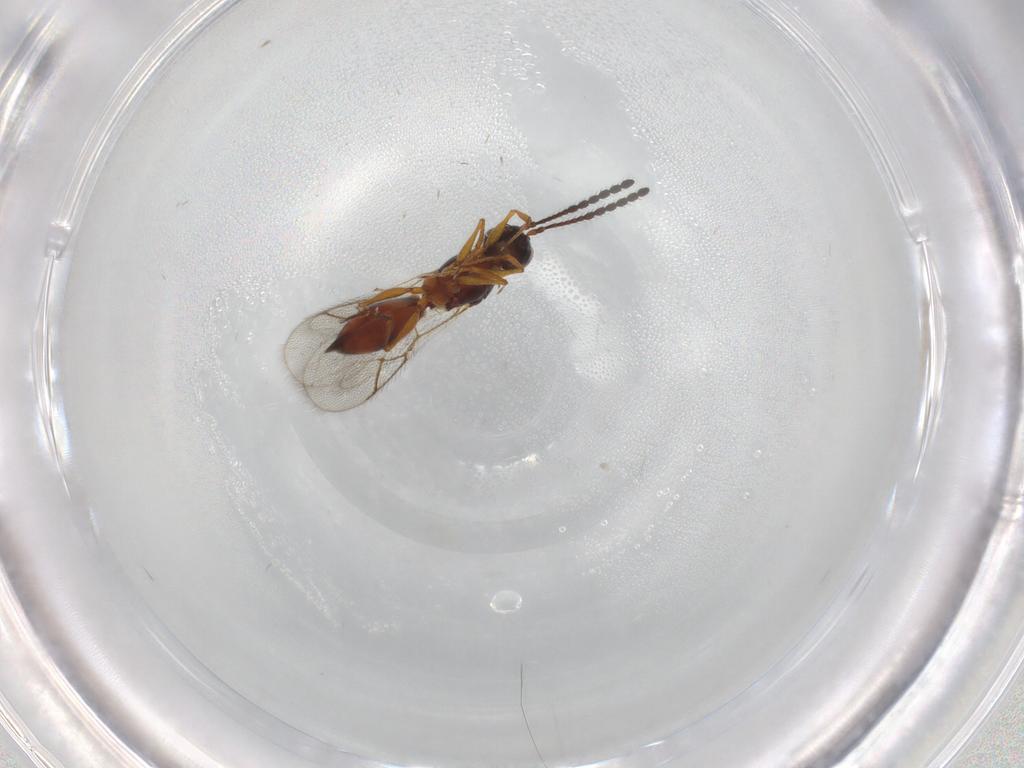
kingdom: Animalia
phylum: Arthropoda
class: Insecta
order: Hymenoptera
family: Figitidae
